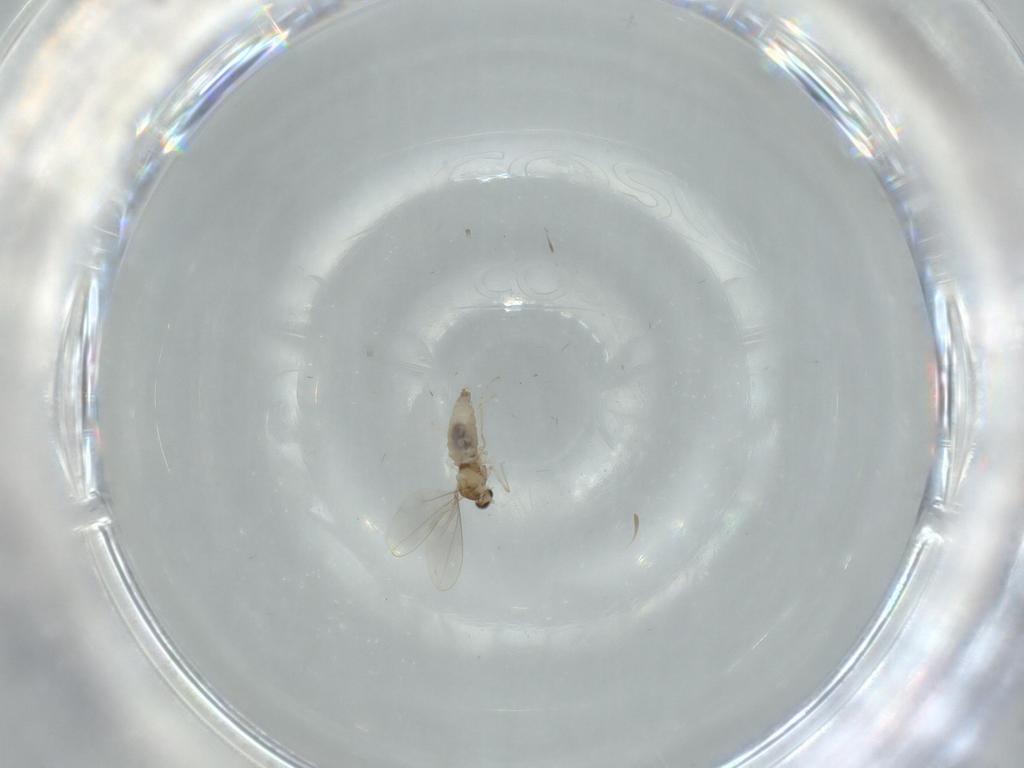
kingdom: Animalia
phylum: Arthropoda
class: Insecta
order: Diptera
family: Cecidomyiidae
